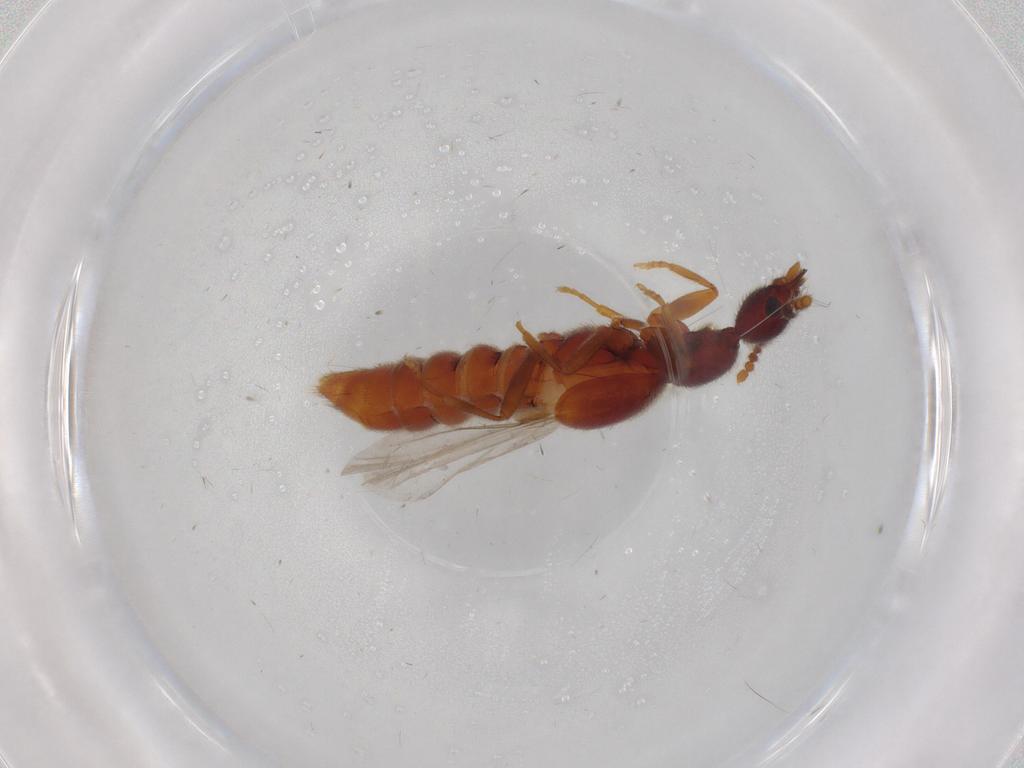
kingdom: Animalia
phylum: Arthropoda
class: Insecta
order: Coleoptera
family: Staphylinidae
